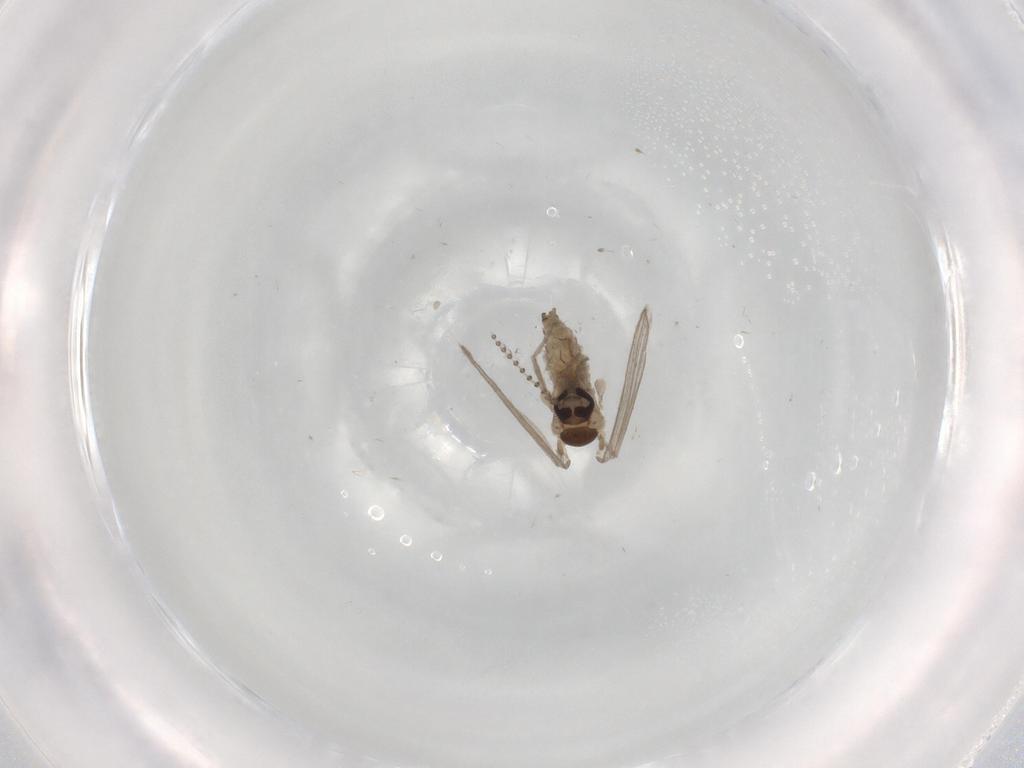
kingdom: Animalia
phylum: Arthropoda
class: Insecta
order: Diptera
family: Psychodidae
